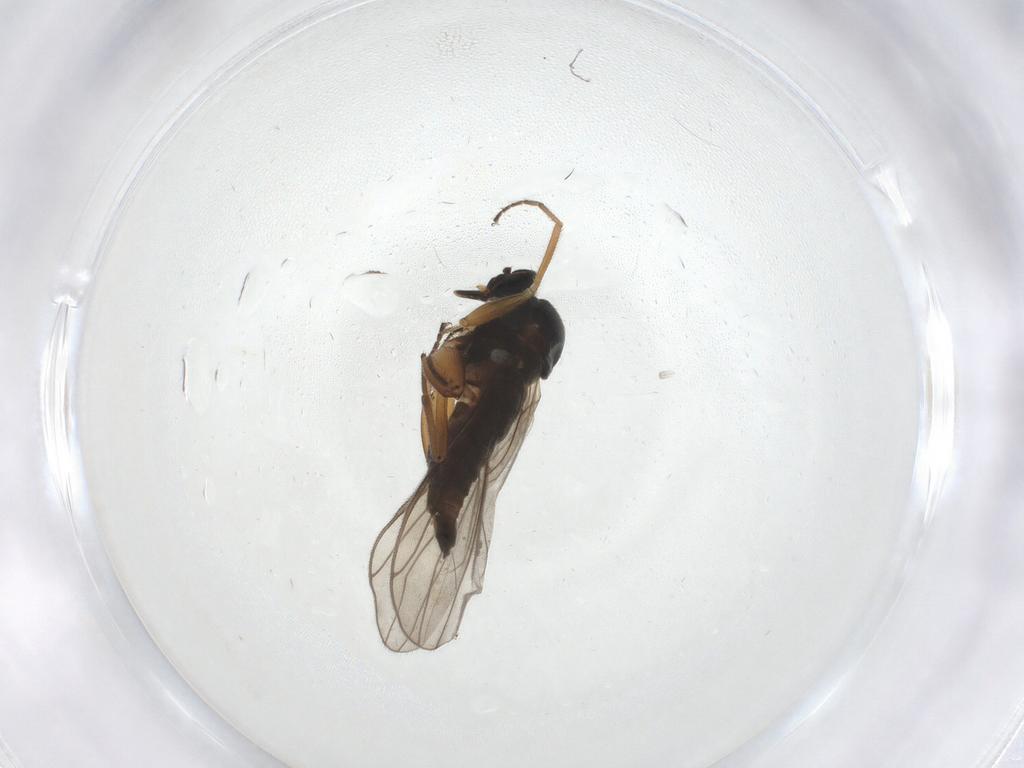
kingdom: Animalia
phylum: Arthropoda
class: Insecta
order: Diptera
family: Hybotidae
